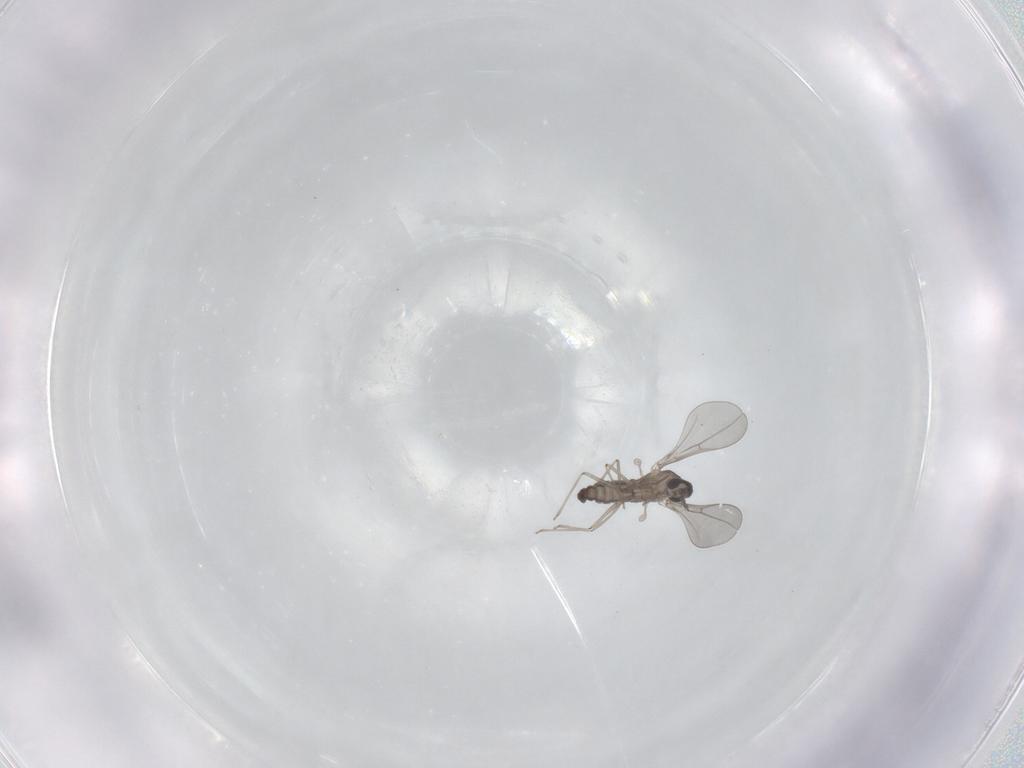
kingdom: Animalia
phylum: Arthropoda
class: Insecta
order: Diptera
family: Cecidomyiidae
